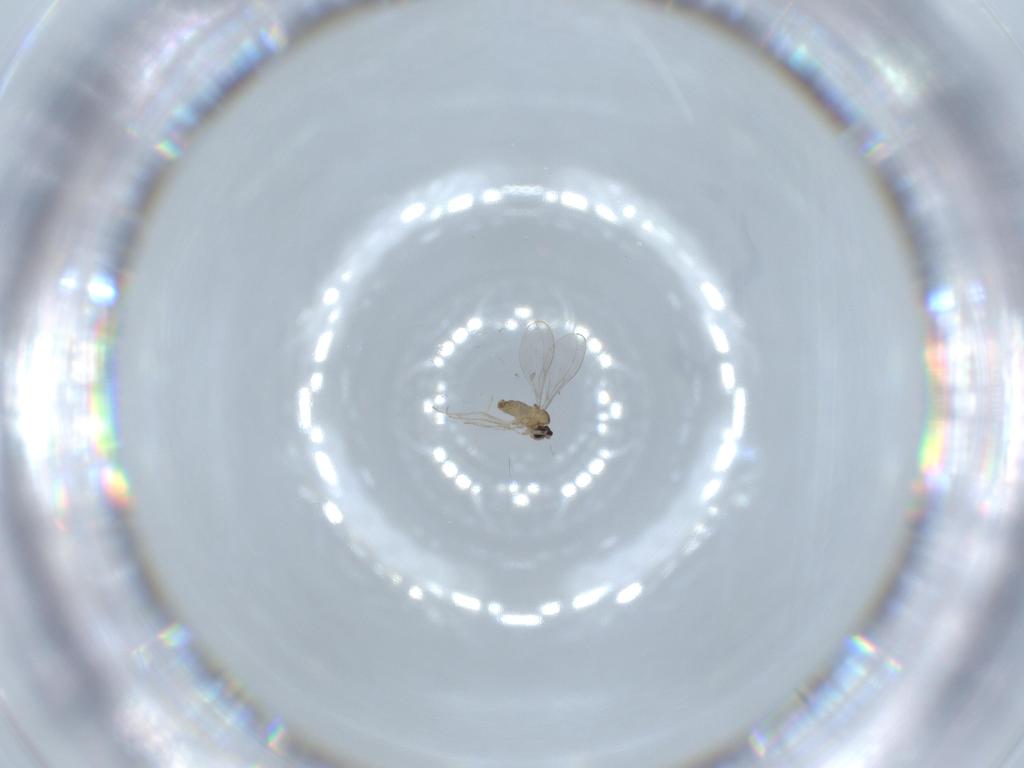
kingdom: Animalia
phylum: Arthropoda
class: Insecta
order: Diptera
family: Cecidomyiidae
